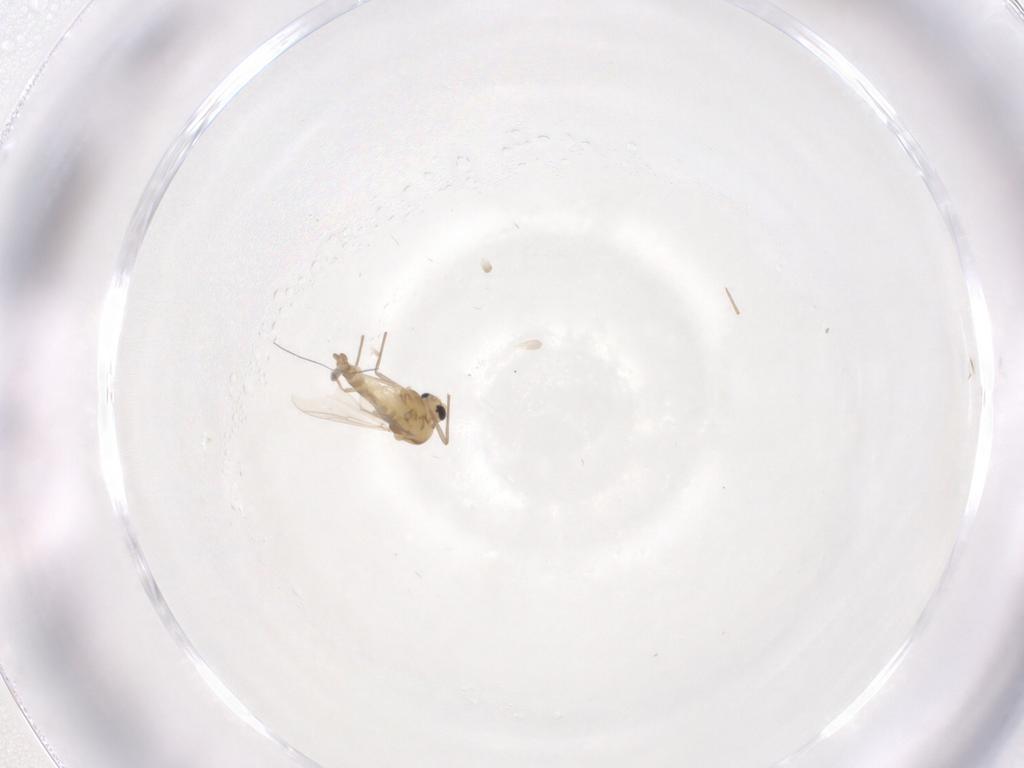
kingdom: Animalia
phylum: Arthropoda
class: Insecta
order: Diptera
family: Chironomidae
